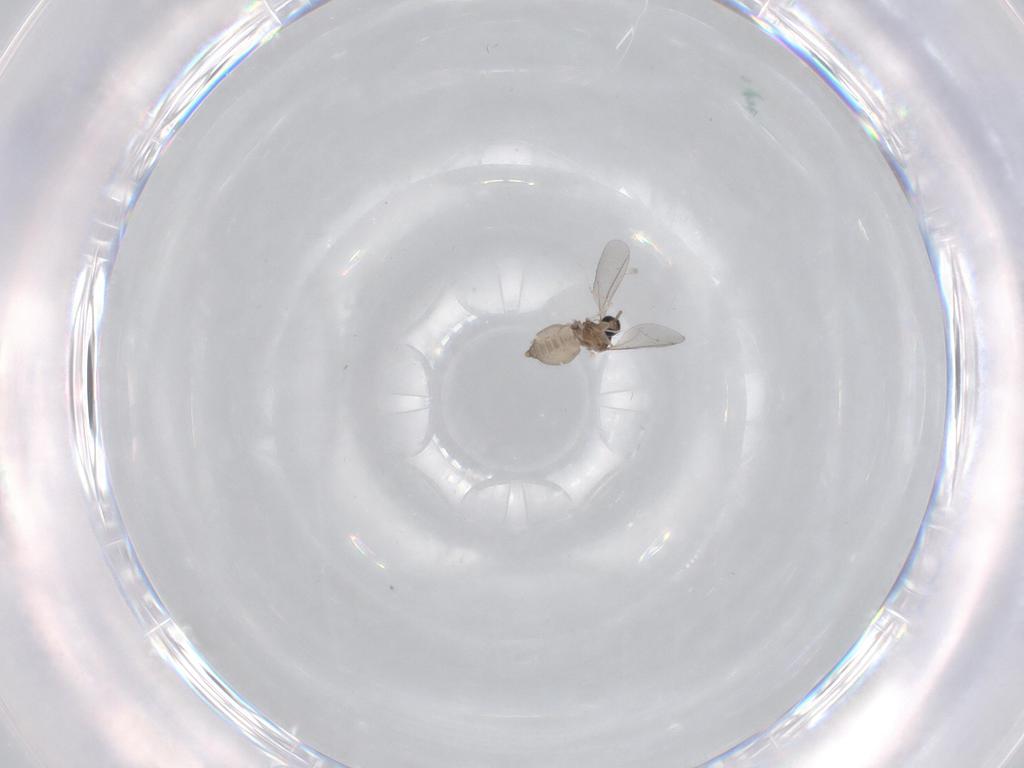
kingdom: Animalia
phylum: Arthropoda
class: Insecta
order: Diptera
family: Cecidomyiidae
